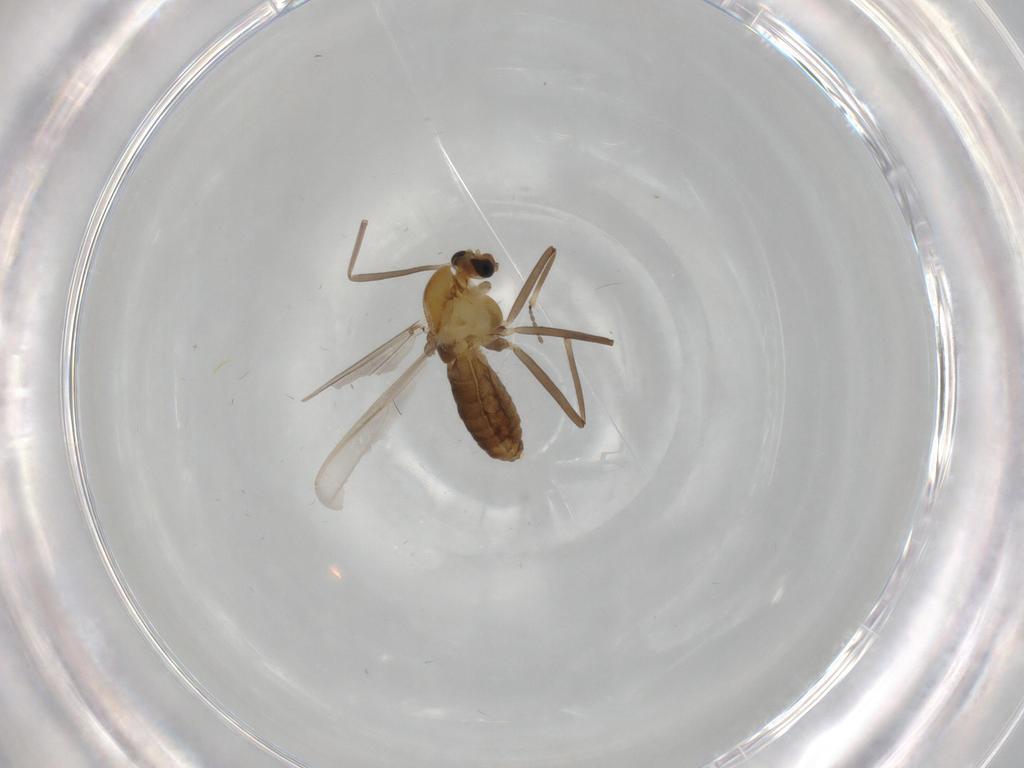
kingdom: Animalia
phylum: Arthropoda
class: Insecta
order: Diptera
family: Chironomidae
